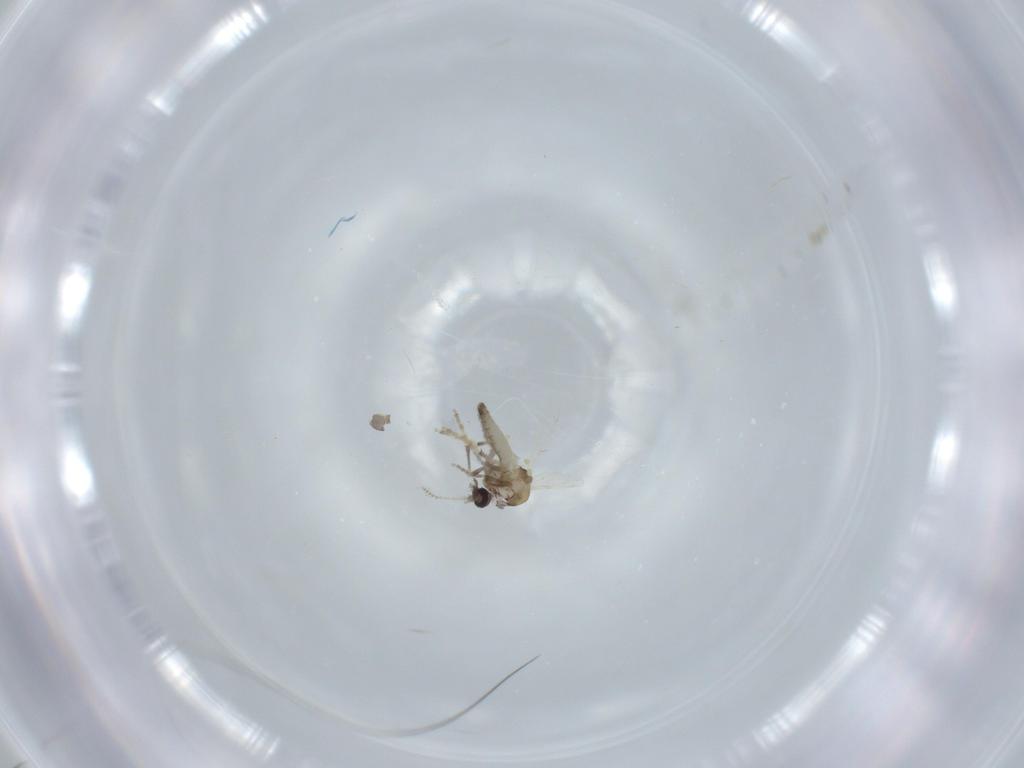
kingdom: Animalia
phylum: Arthropoda
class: Insecta
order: Diptera
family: Ceratopogonidae
